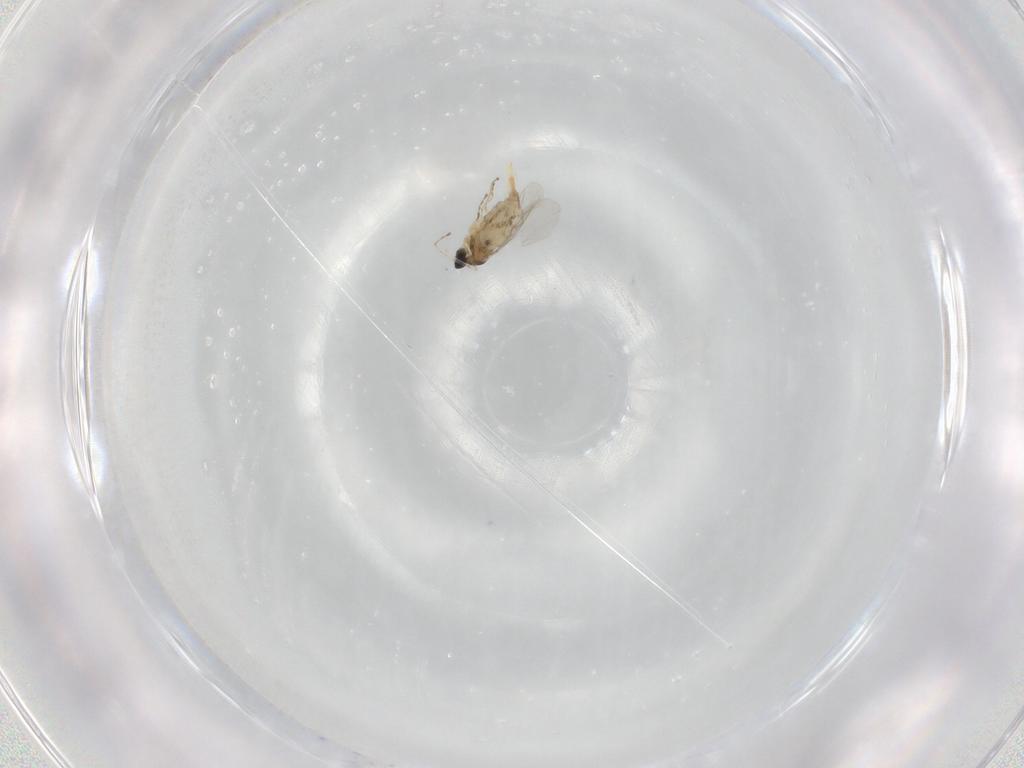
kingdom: Animalia
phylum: Arthropoda
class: Insecta
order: Diptera
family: Cecidomyiidae
